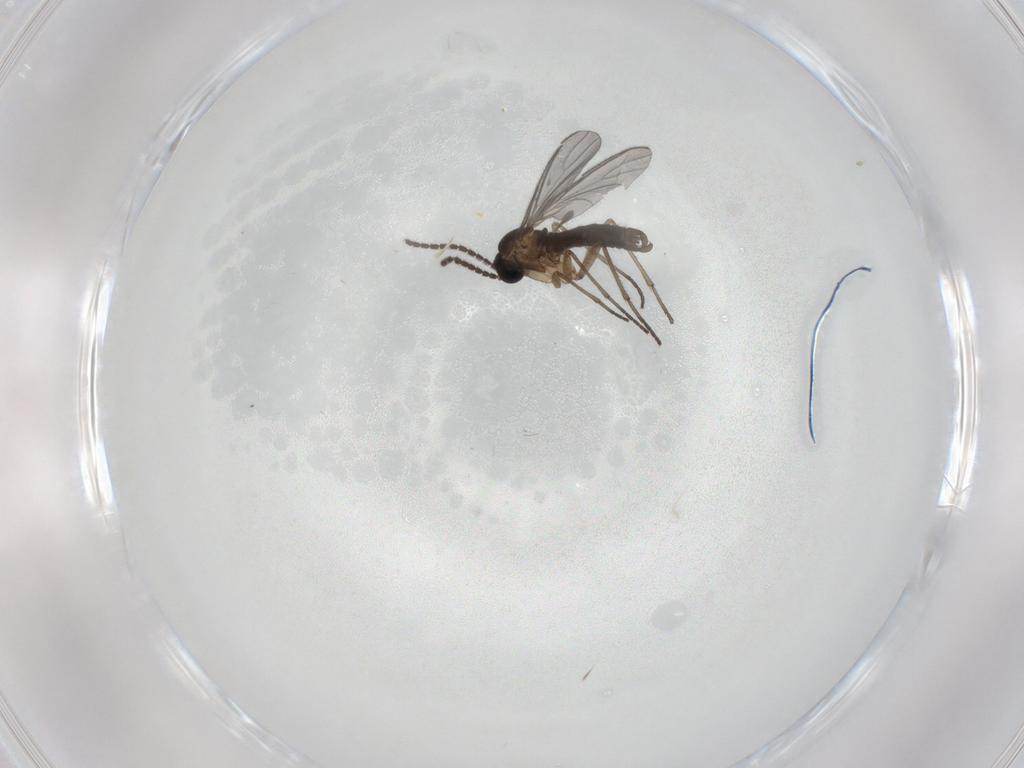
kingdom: Animalia
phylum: Arthropoda
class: Insecta
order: Diptera
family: Sciaridae
